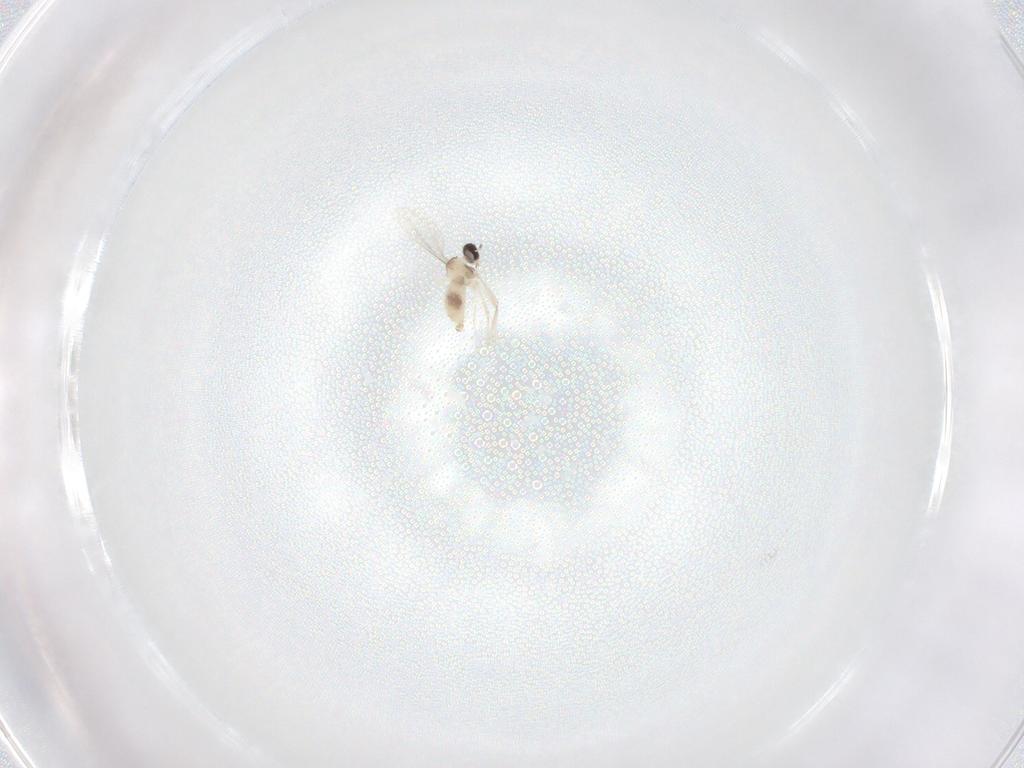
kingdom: Animalia
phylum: Arthropoda
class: Insecta
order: Diptera
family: Cecidomyiidae
